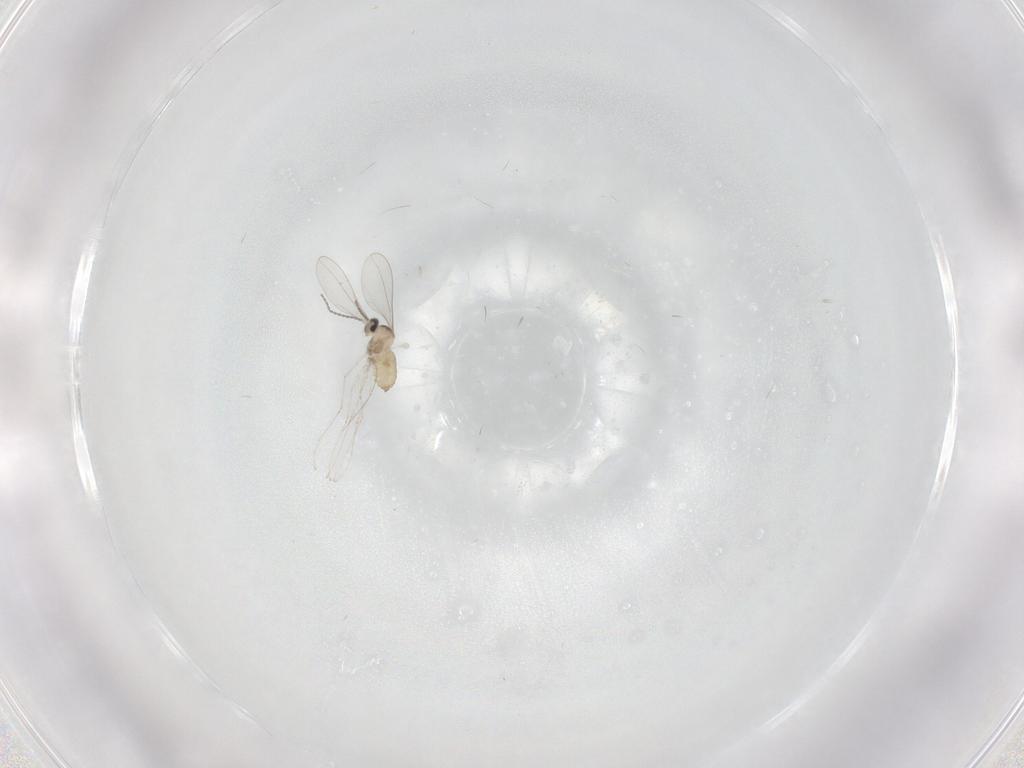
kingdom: Animalia
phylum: Arthropoda
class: Insecta
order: Diptera
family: Cecidomyiidae
